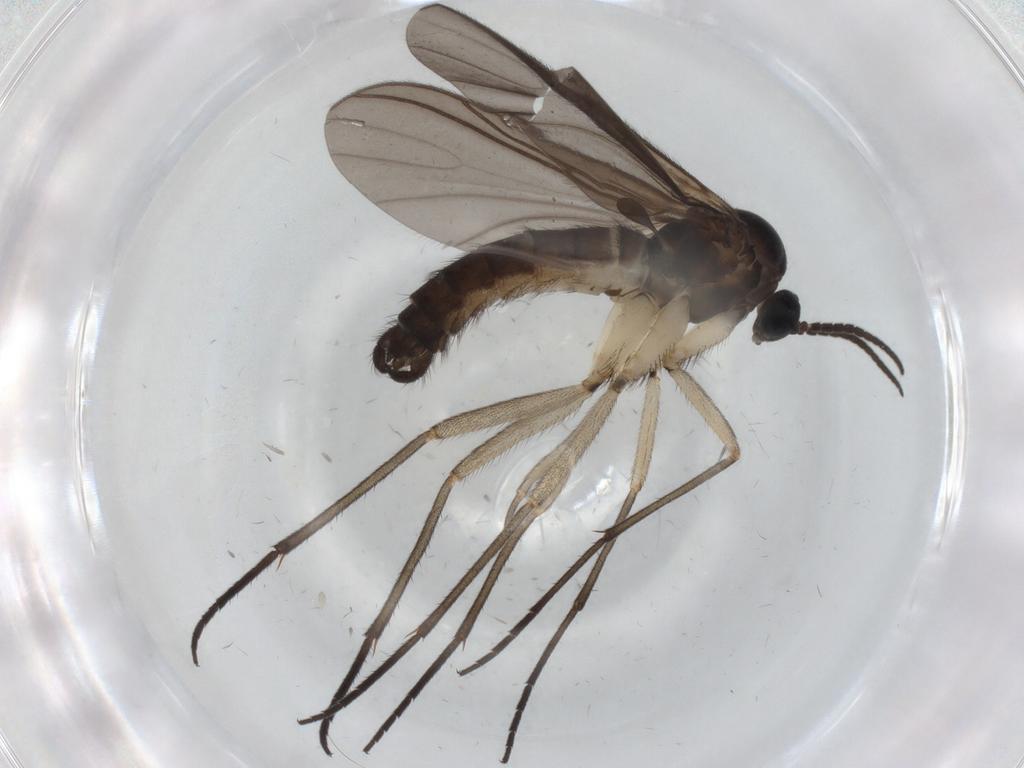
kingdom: Animalia
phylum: Arthropoda
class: Insecta
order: Diptera
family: Sciaridae
